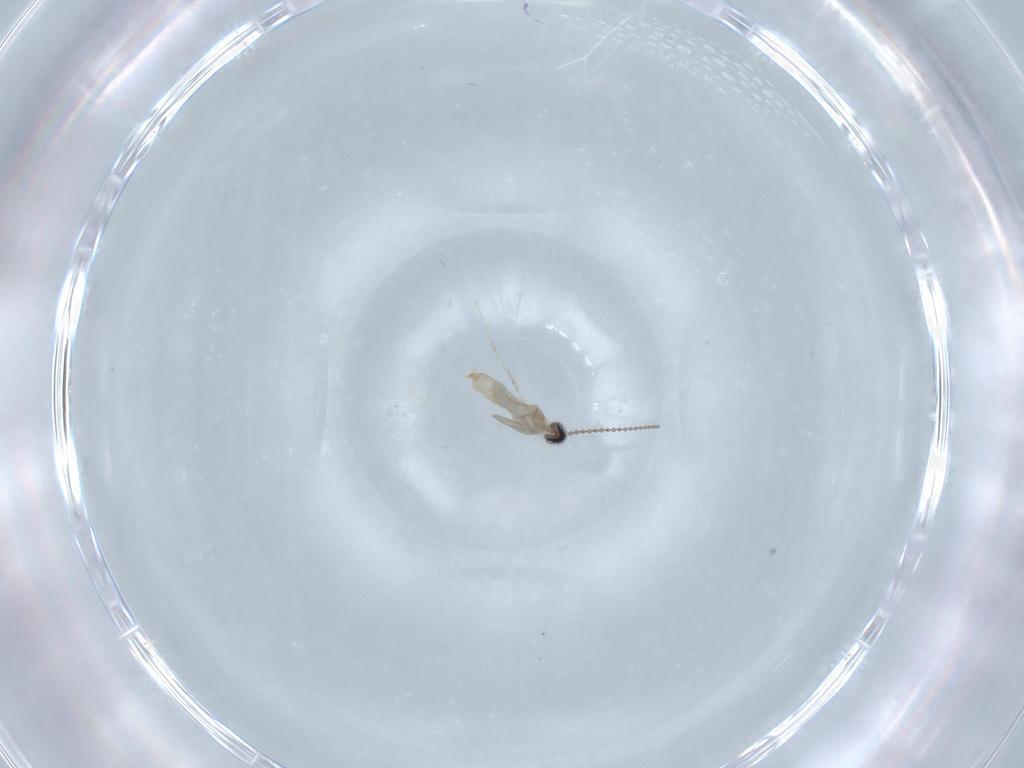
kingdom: Animalia
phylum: Arthropoda
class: Insecta
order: Diptera
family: Cecidomyiidae
